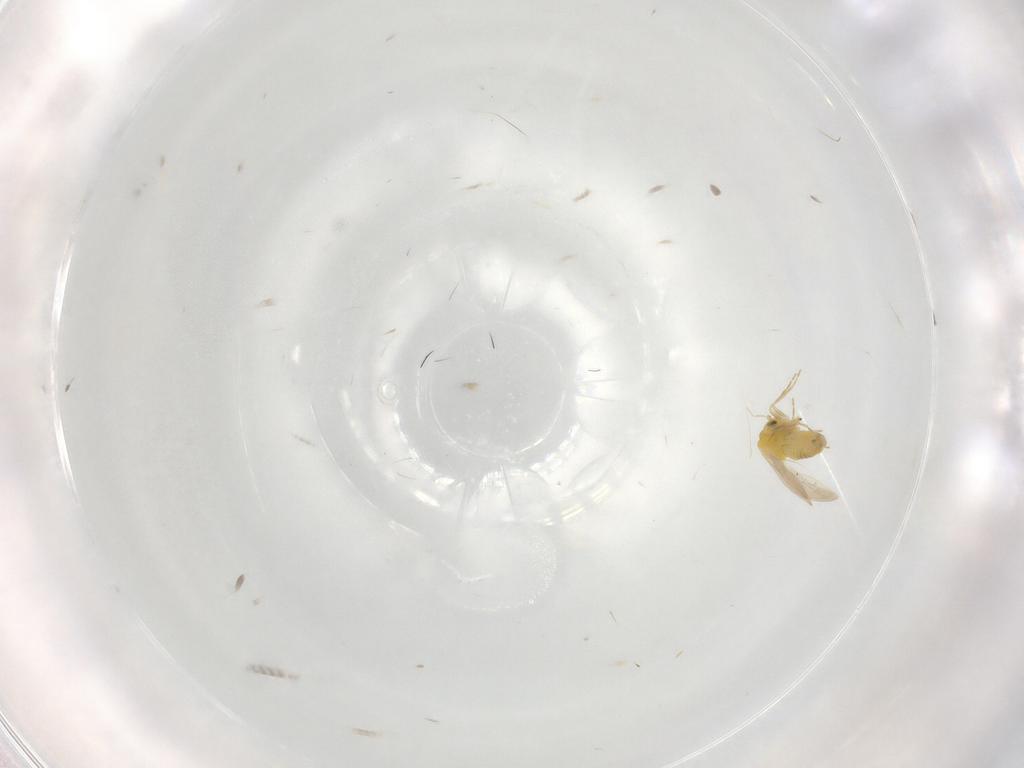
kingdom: Animalia
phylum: Arthropoda
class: Insecta
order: Hemiptera
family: Aleyrodidae
